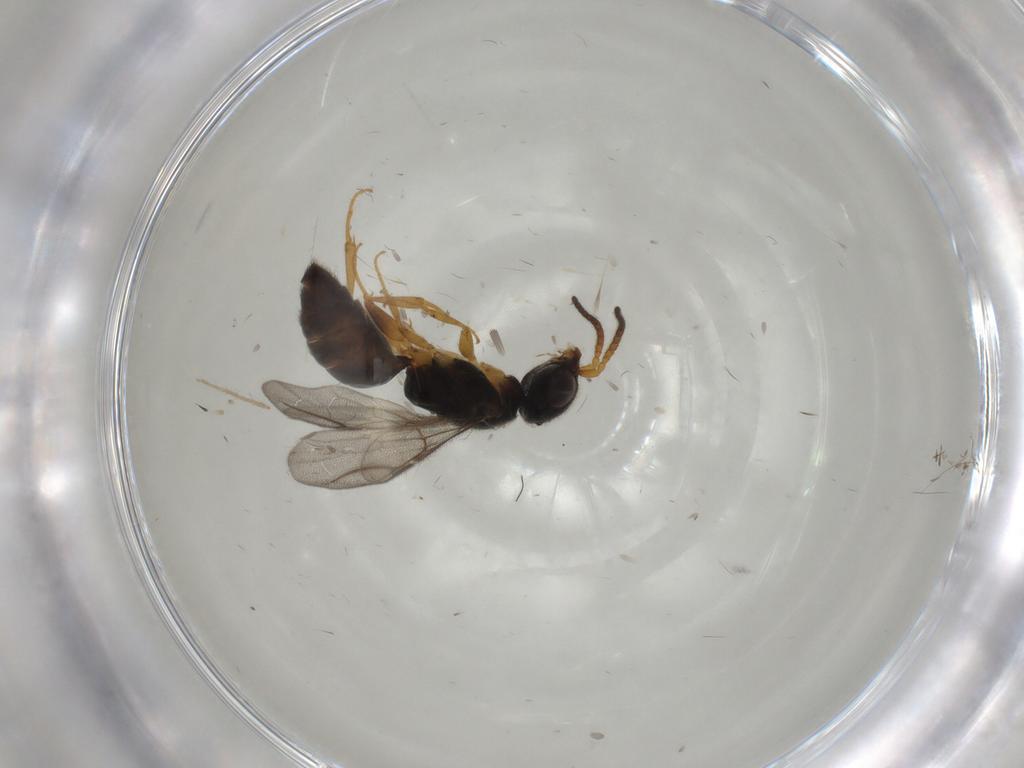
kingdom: Animalia
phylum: Arthropoda
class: Insecta
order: Hymenoptera
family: Bethylidae
